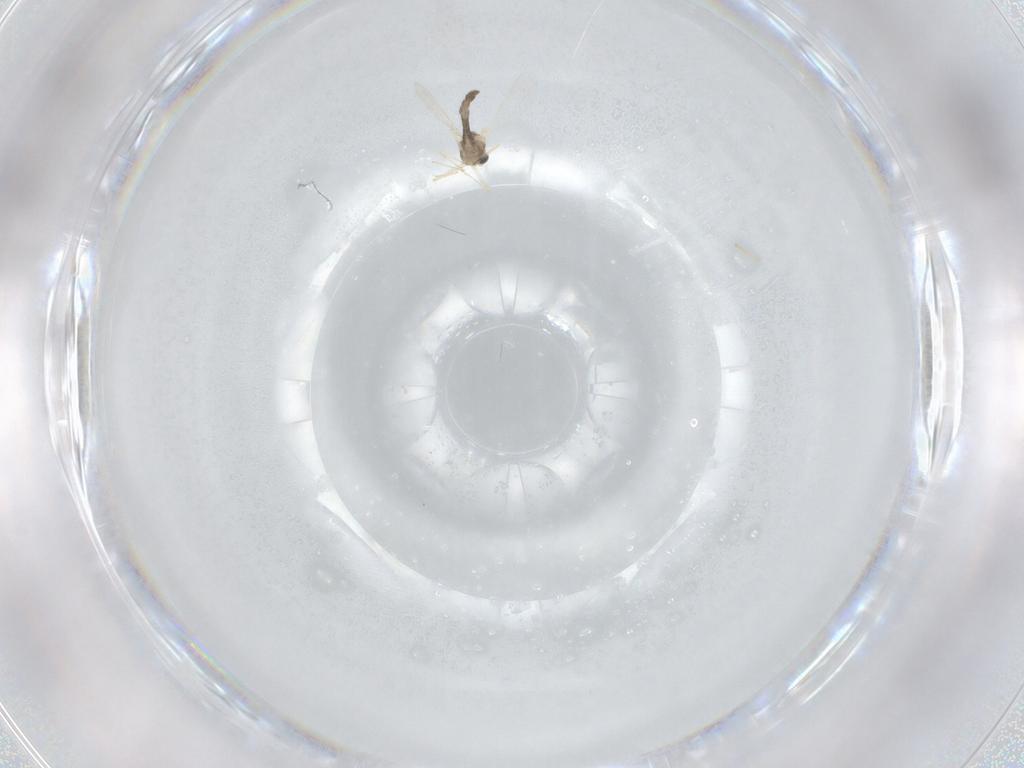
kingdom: Animalia
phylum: Arthropoda
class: Insecta
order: Diptera
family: Chironomidae
